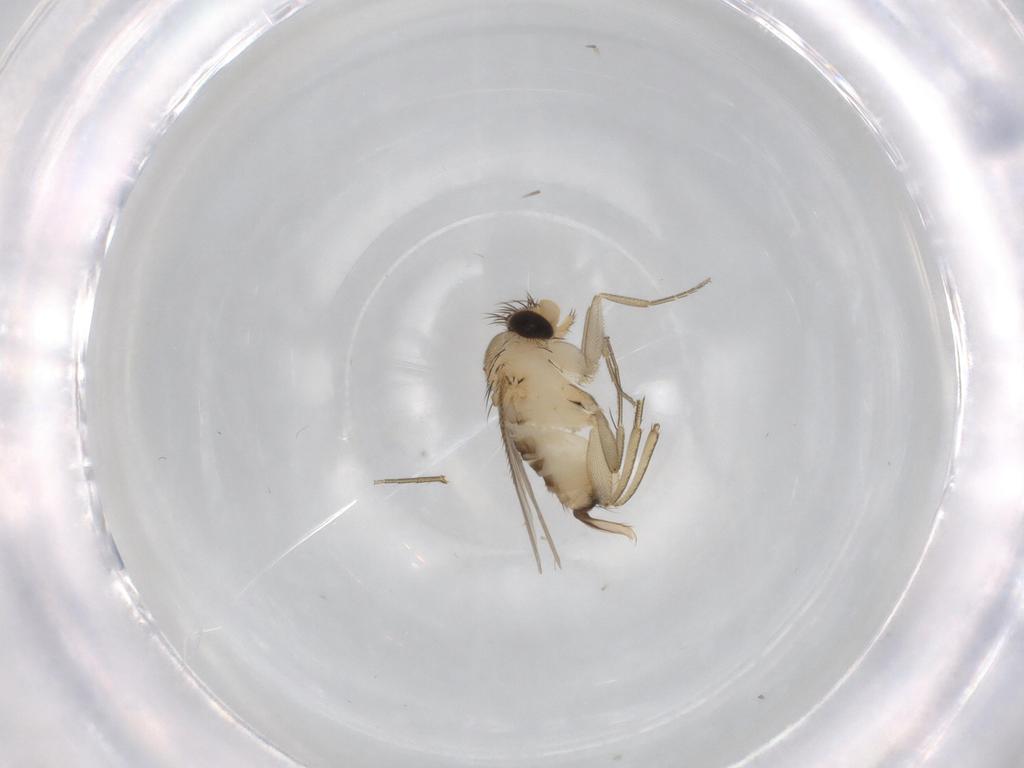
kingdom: Animalia
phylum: Arthropoda
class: Insecta
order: Diptera
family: Phoridae
